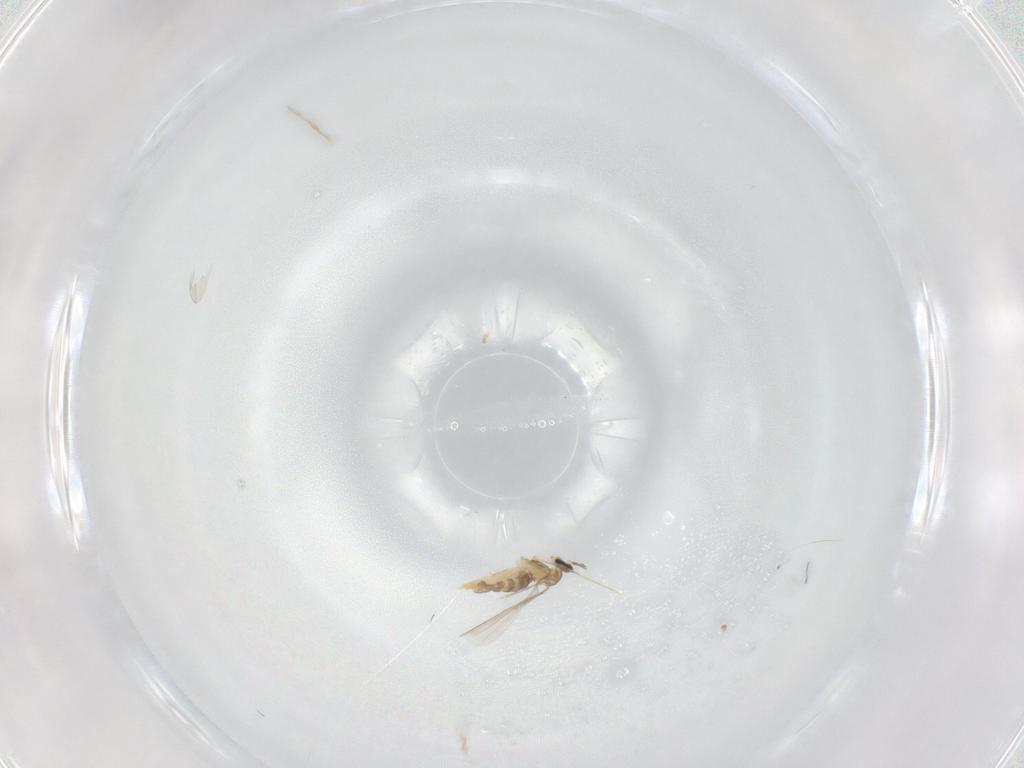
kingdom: Animalia
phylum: Arthropoda
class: Insecta
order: Diptera
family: Cecidomyiidae
